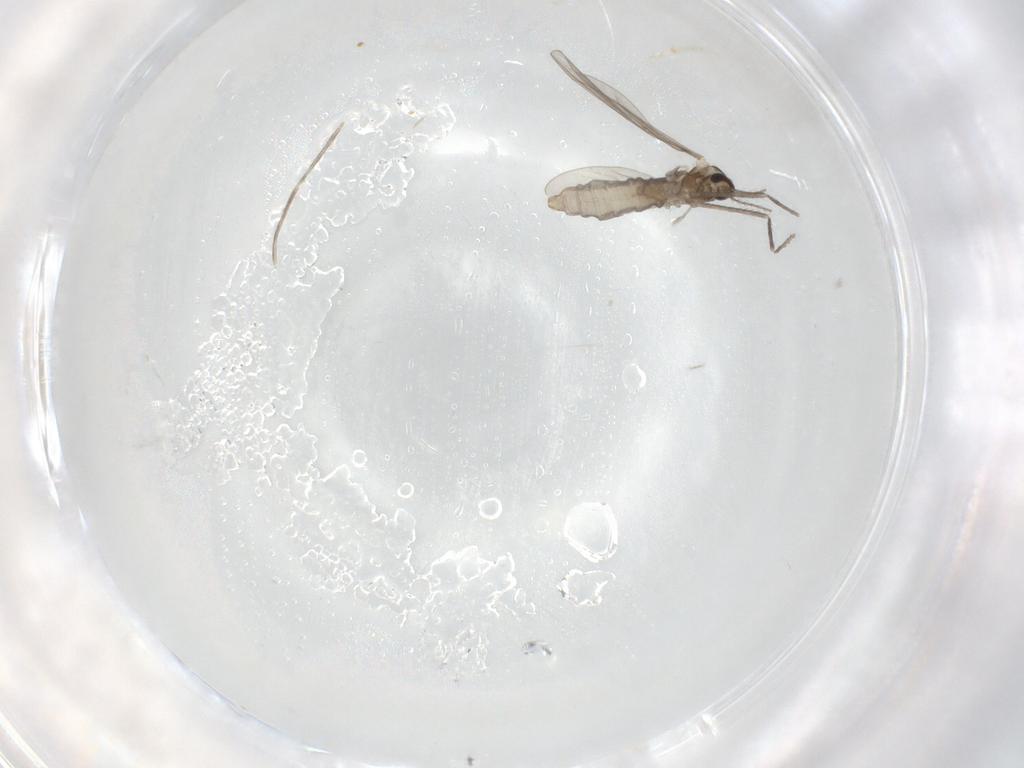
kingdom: Animalia
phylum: Arthropoda
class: Insecta
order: Diptera
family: Cecidomyiidae
